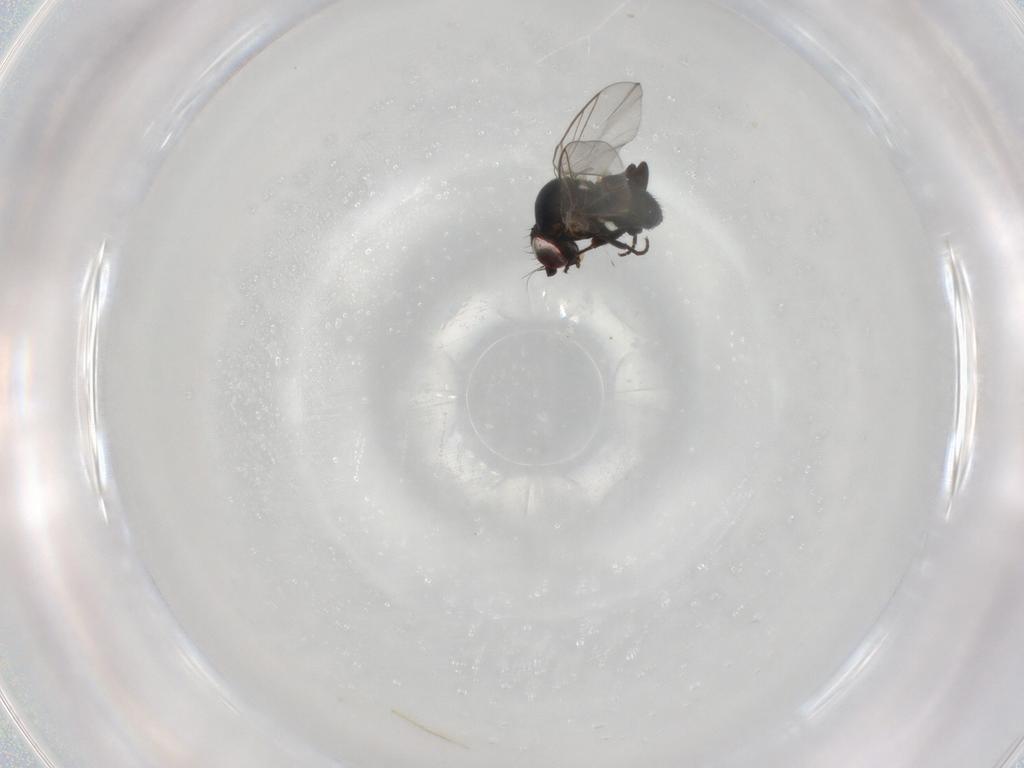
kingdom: Animalia
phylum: Arthropoda
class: Insecta
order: Diptera
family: Agromyzidae
